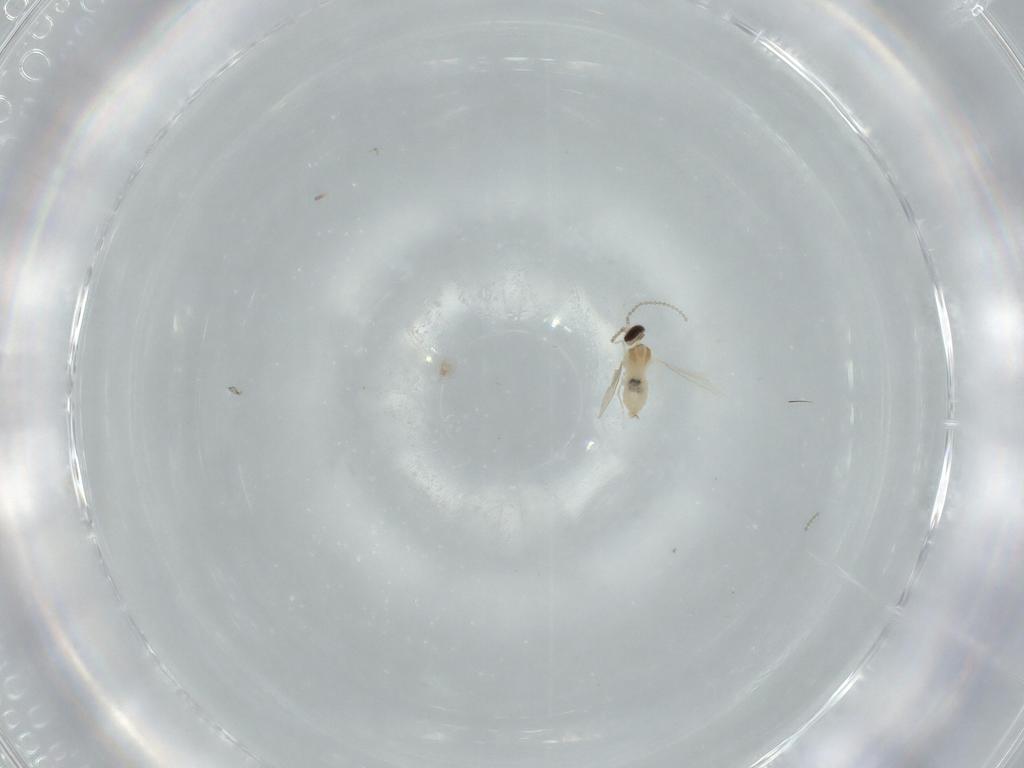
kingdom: Animalia
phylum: Arthropoda
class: Insecta
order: Diptera
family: Cecidomyiidae
